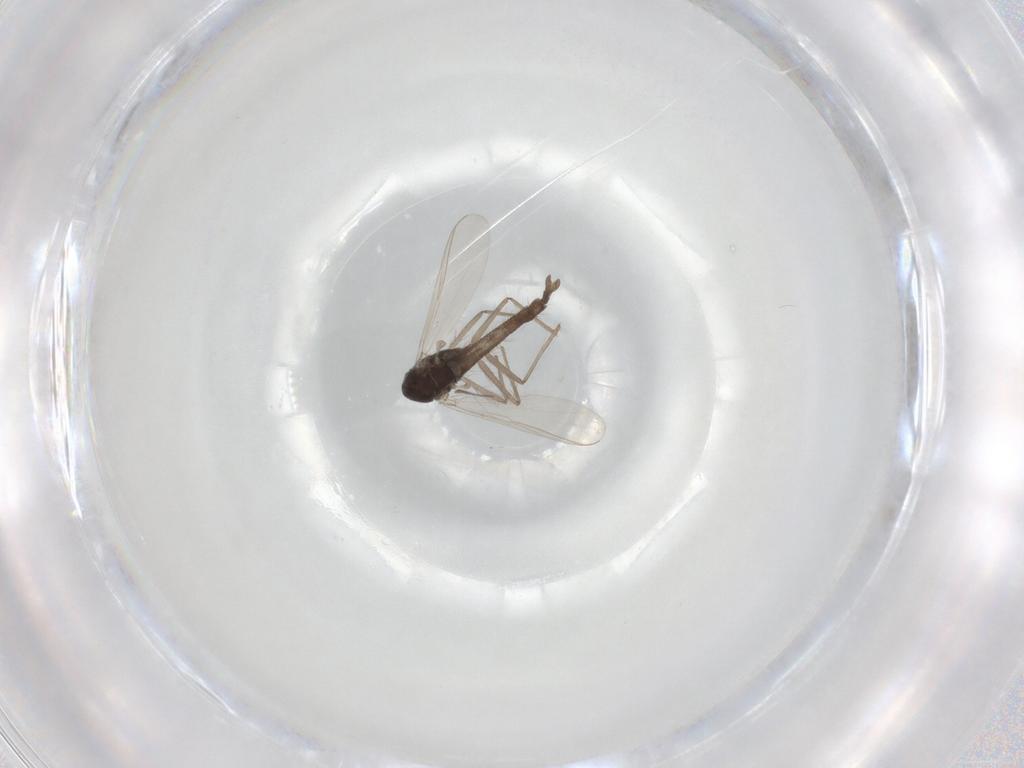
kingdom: Animalia
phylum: Arthropoda
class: Insecta
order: Diptera
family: Chironomidae
